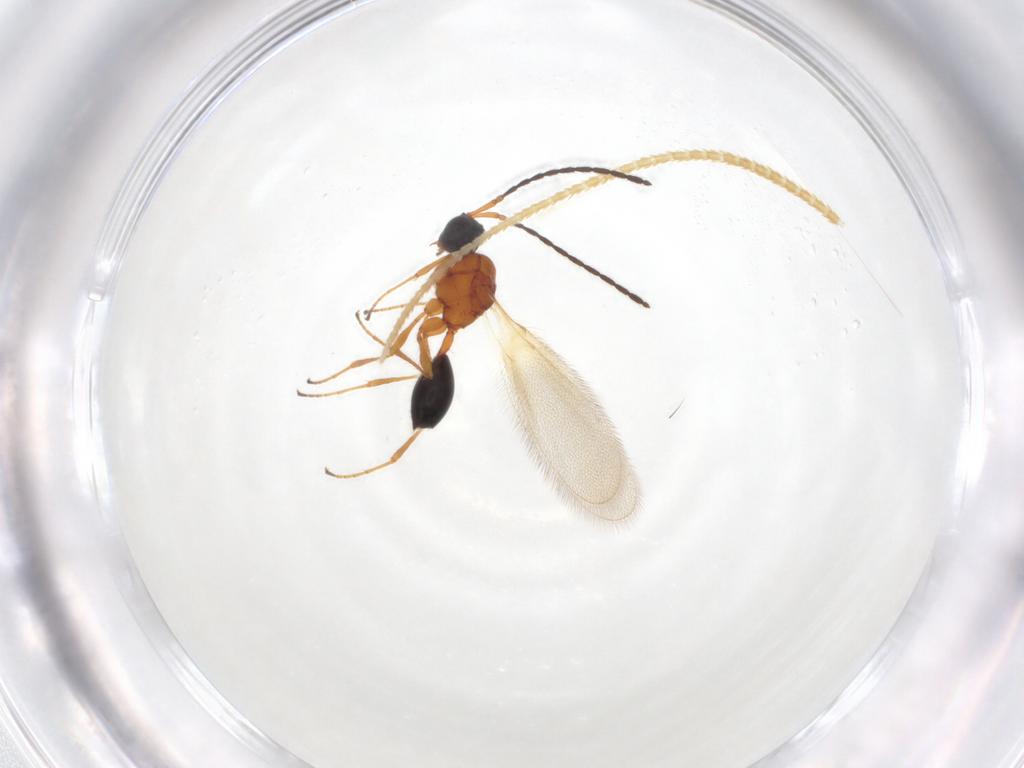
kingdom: Animalia
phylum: Arthropoda
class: Insecta
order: Hymenoptera
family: Diapriidae
